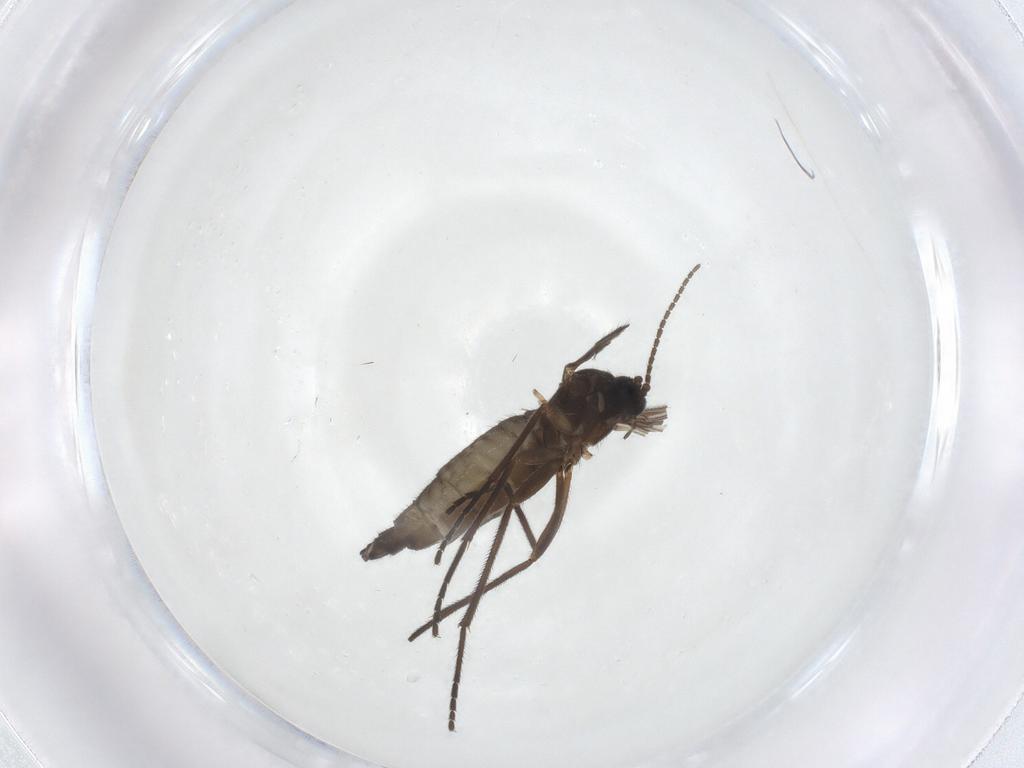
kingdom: Animalia
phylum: Arthropoda
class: Insecta
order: Diptera
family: Sciaridae
